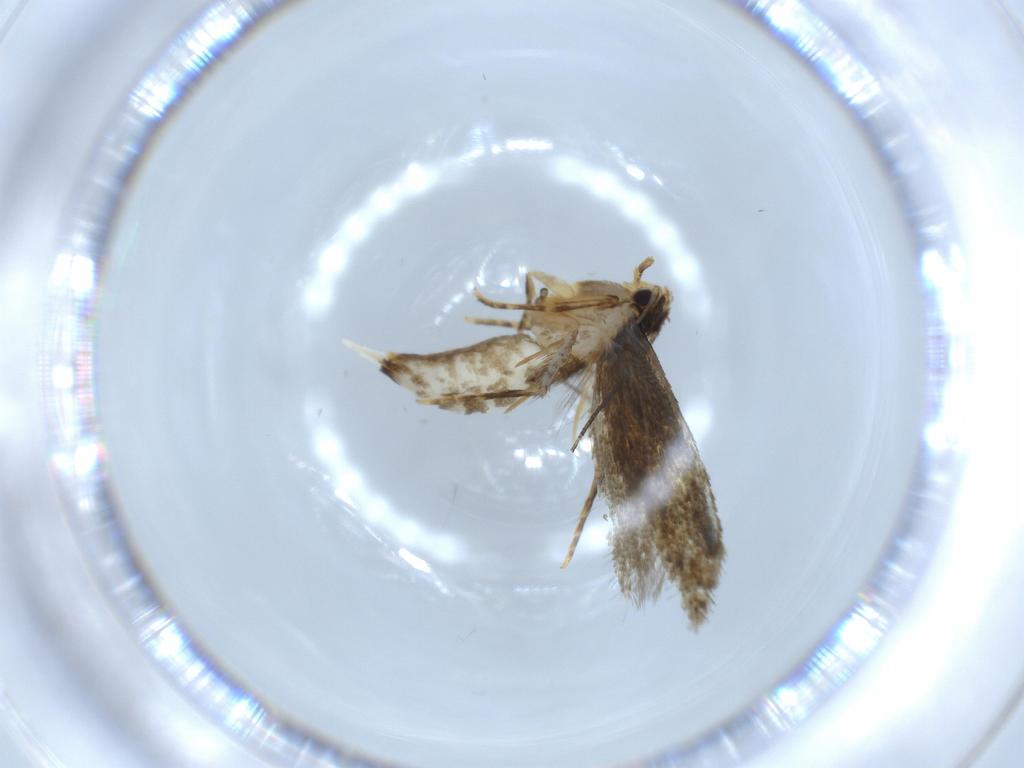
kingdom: Animalia
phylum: Arthropoda
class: Insecta
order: Lepidoptera
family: Tineidae
